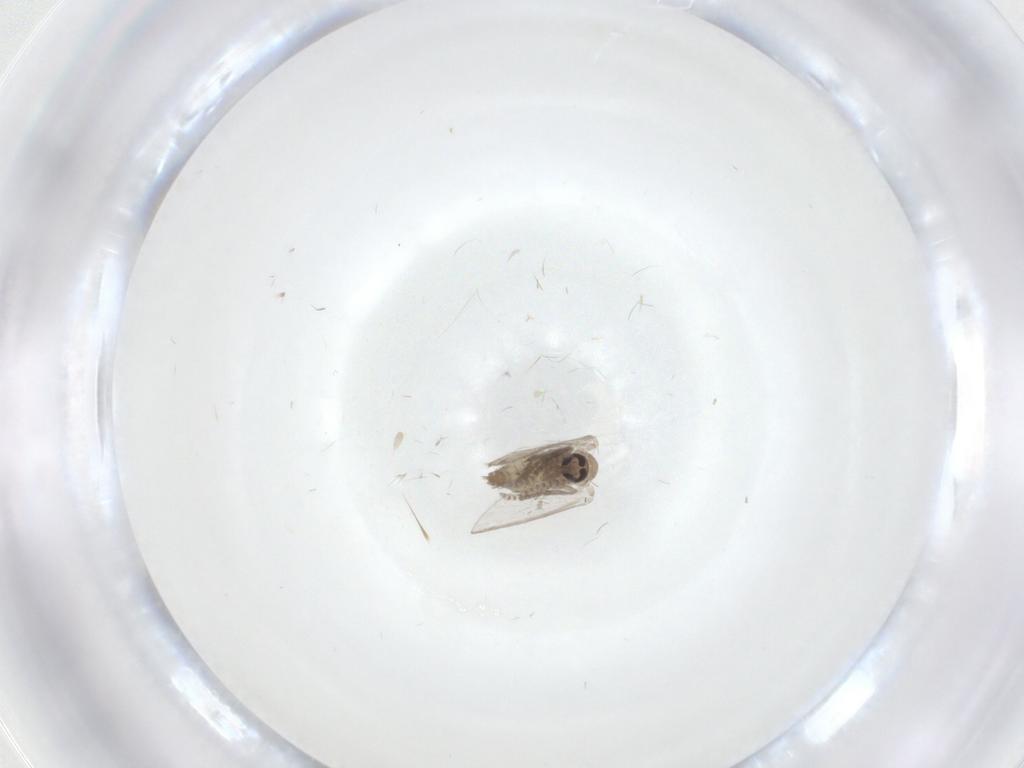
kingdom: Animalia
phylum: Arthropoda
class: Insecta
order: Diptera
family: Psychodidae
